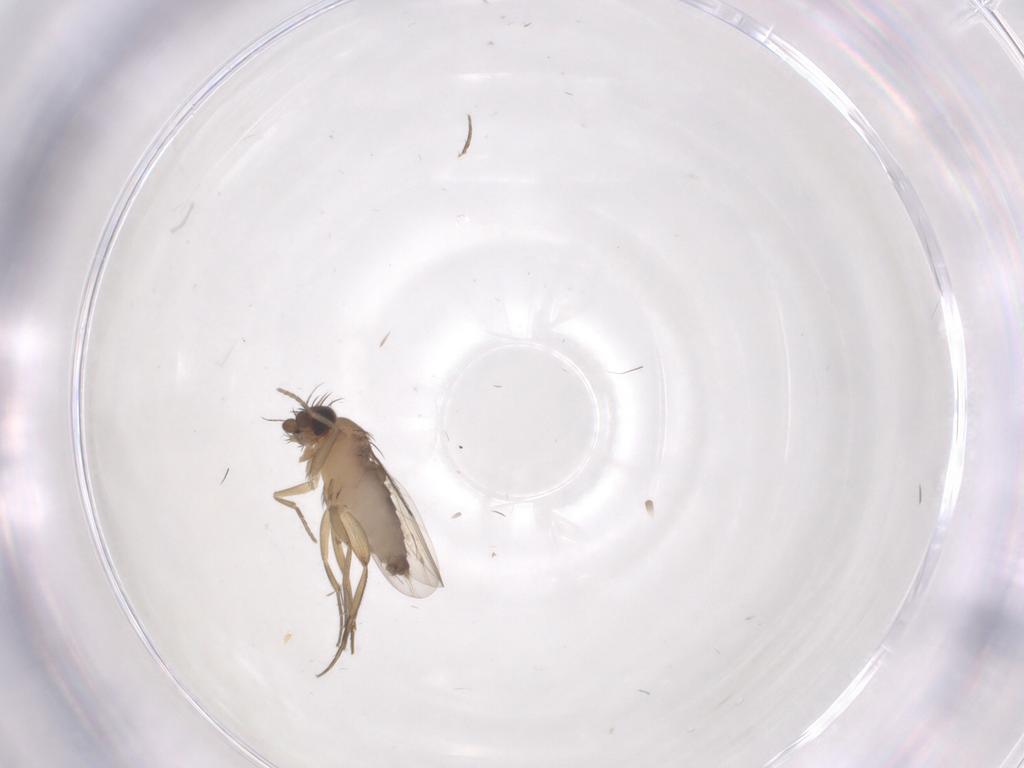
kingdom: Animalia
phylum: Arthropoda
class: Insecta
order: Diptera
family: Phoridae
